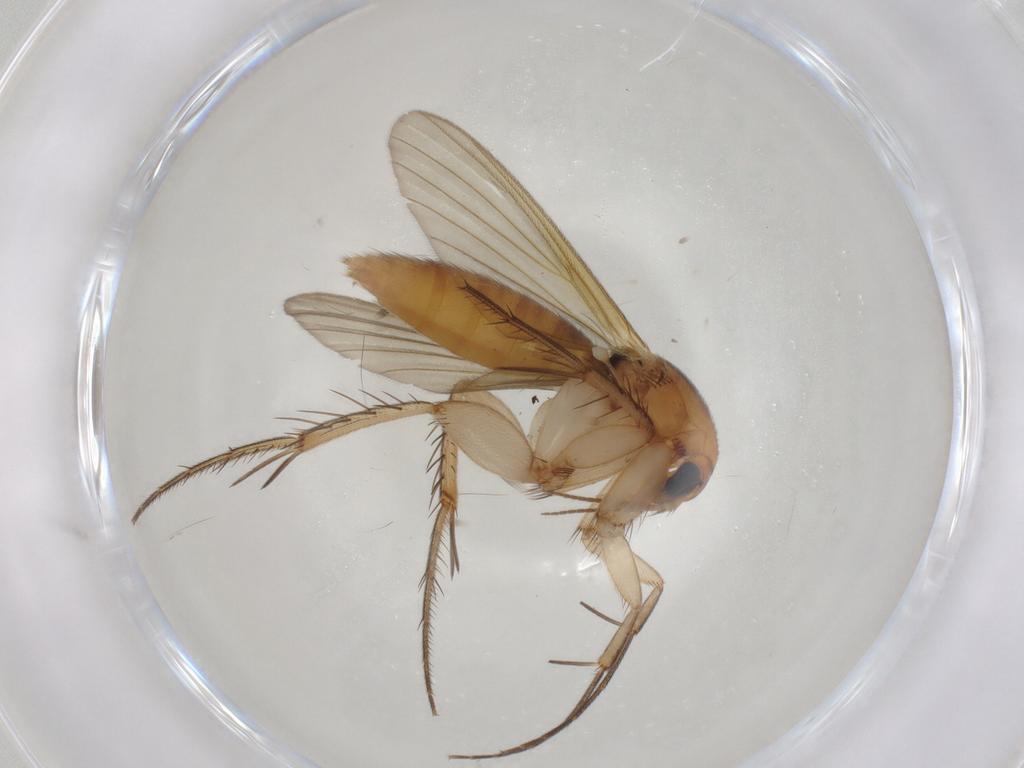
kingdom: Animalia
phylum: Arthropoda
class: Insecta
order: Diptera
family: Mycetophilidae
